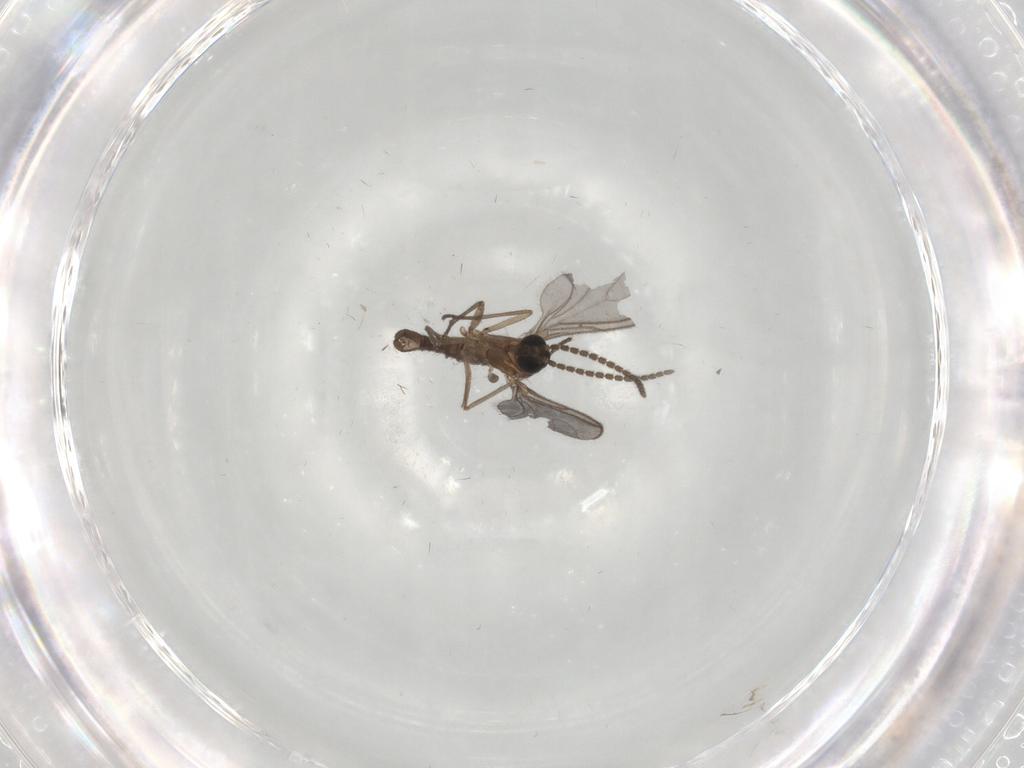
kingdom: Animalia
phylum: Arthropoda
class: Insecta
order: Diptera
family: Sciaridae
